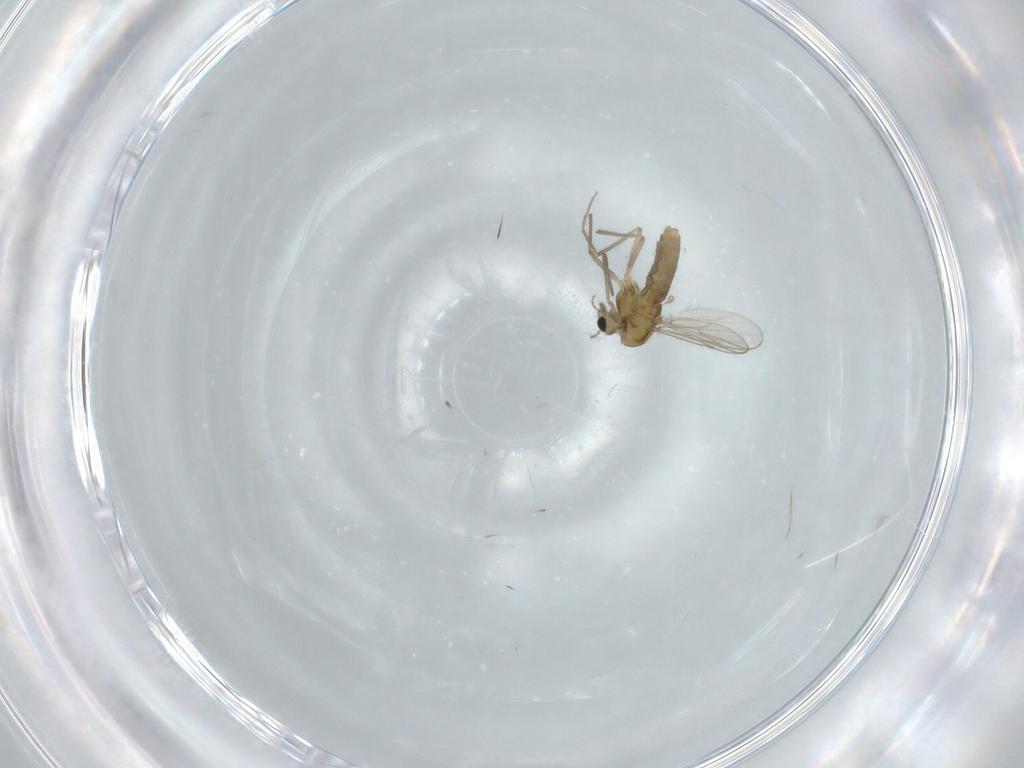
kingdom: Animalia
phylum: Arthropoda
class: Insecta
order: Diptera
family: Chironomidae
